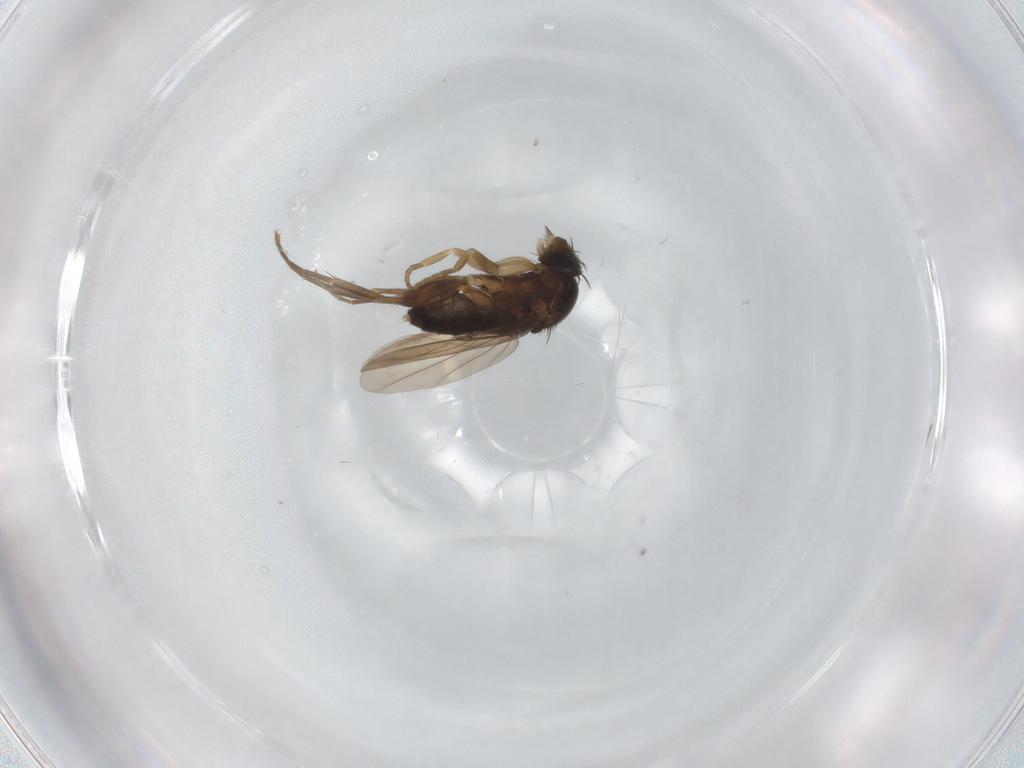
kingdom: Animalia
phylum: Arthropoda
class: Insecta
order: Diptera
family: Phoridae
